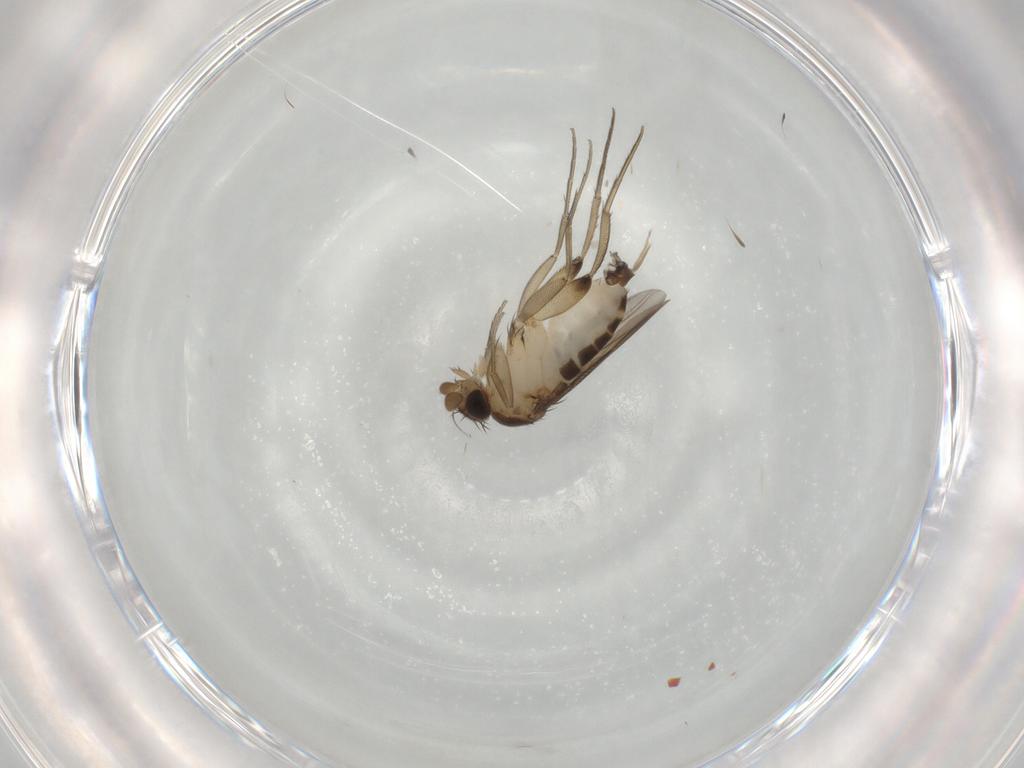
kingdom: Animalia
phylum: Arthropoda
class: Insecta
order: Diptera
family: Phoridae
